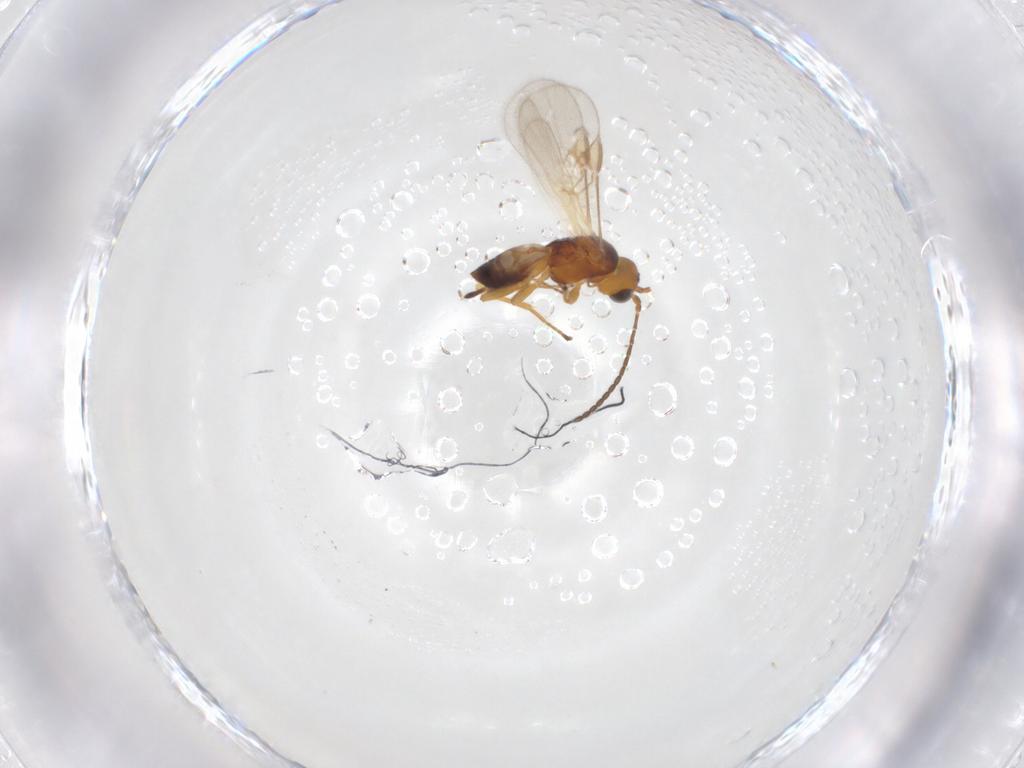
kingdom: Animalia
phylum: Arthropoda
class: Insecta
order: Hymenoptera
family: Braconidae
